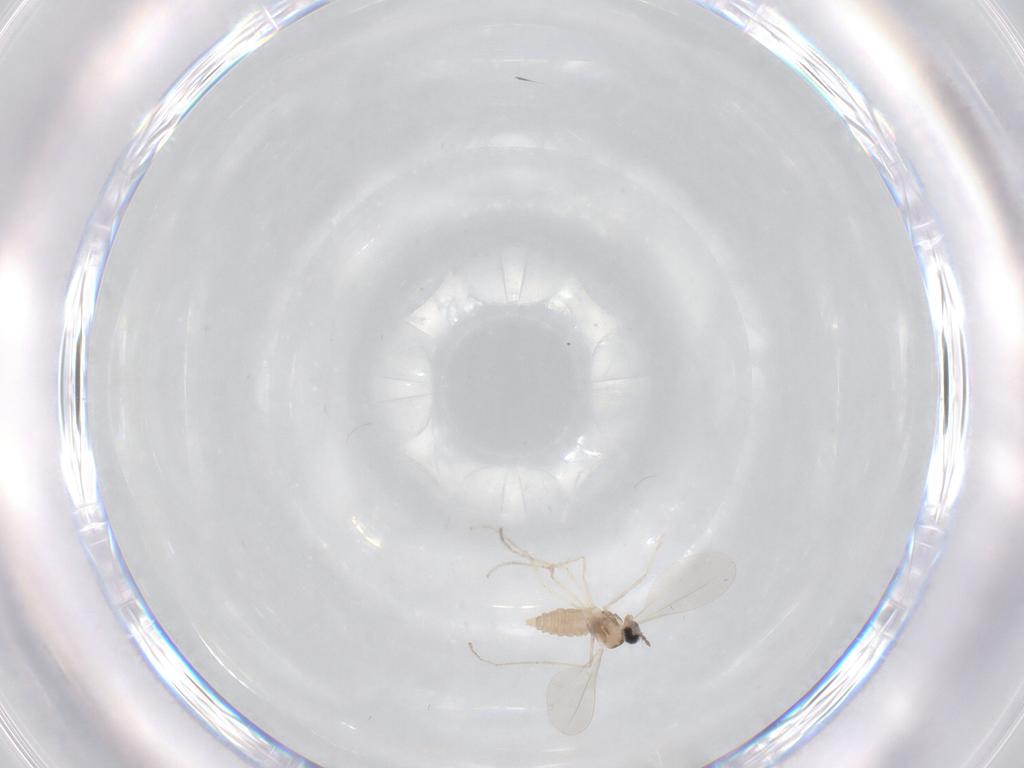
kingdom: Animalia
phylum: Arthropoda
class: Insecta
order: Diptera
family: Cecidomyiidae
